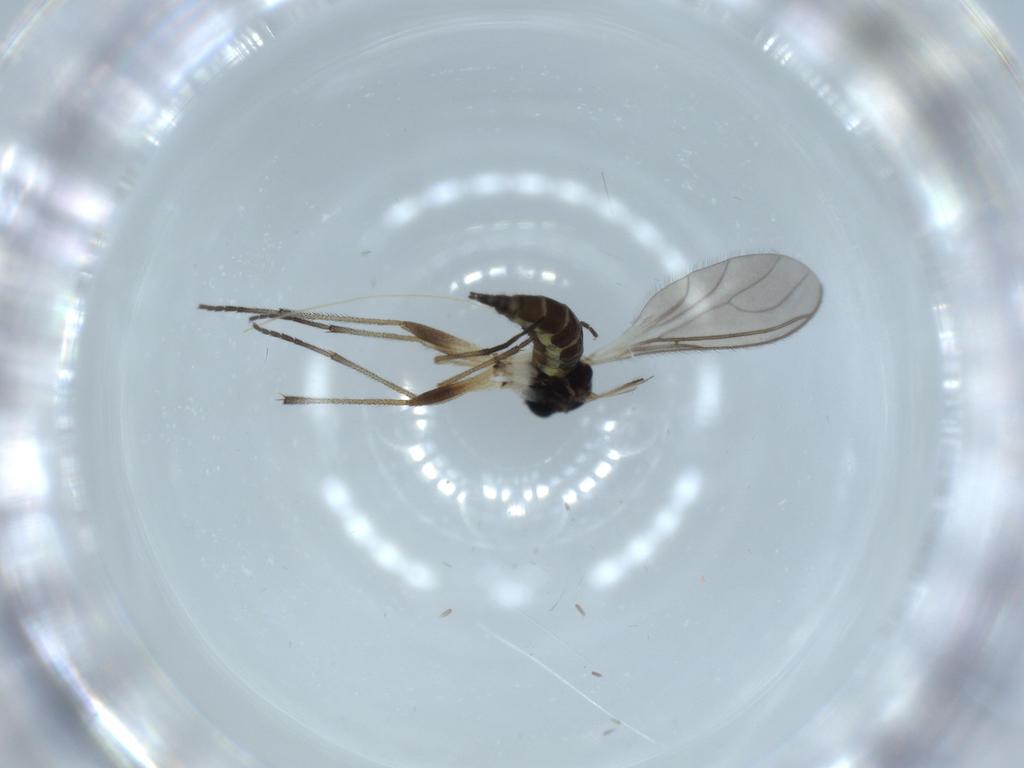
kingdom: Animalia
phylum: Arthropoda
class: Insecta
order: Diptera
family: Sciaridae
